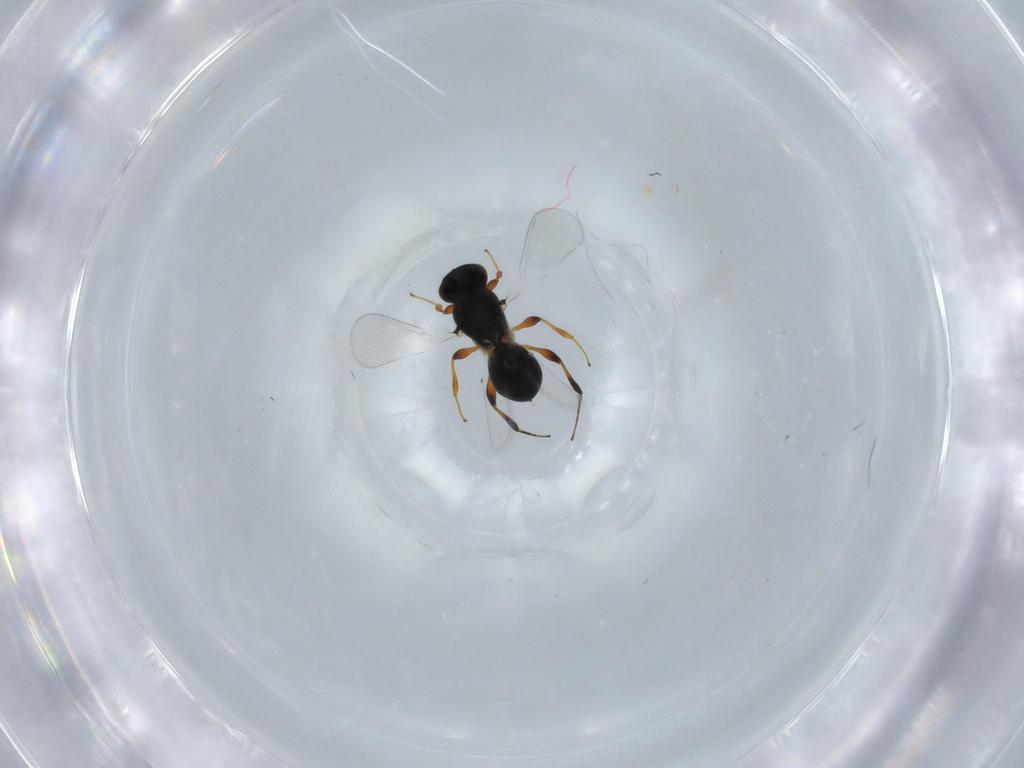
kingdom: Animalia
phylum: Arthropoda
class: Insecta
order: Hymenoptera
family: Platygastridae
